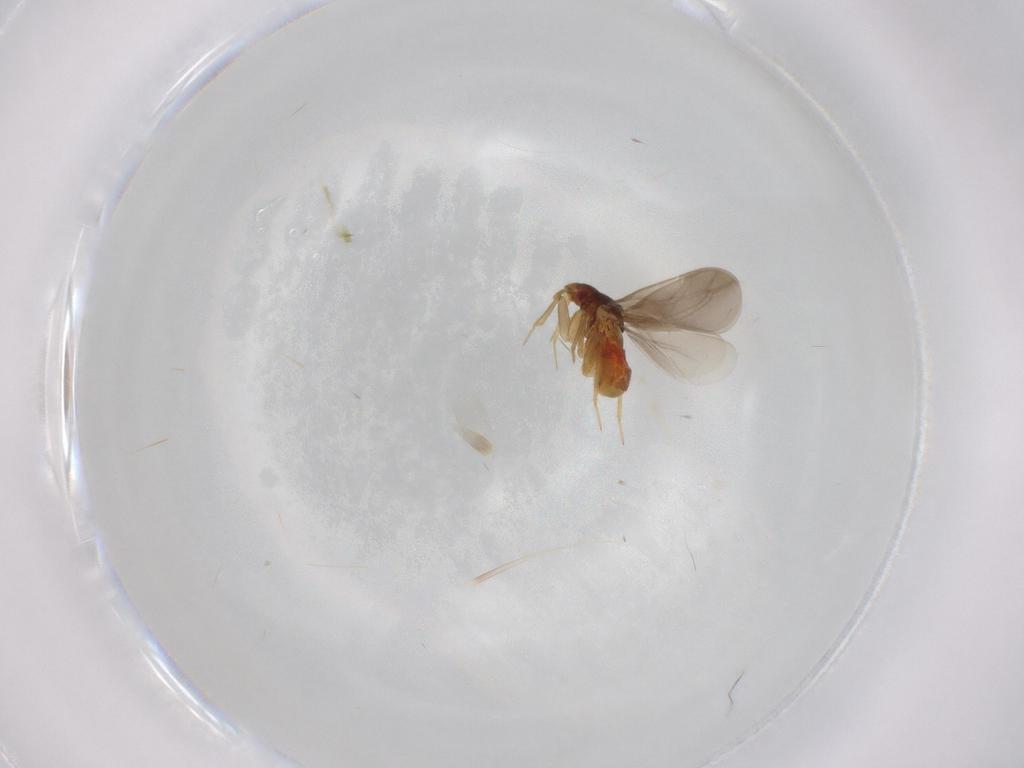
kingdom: Animalia
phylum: Arthropoda
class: Insecta
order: Hemiptera
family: Ceratocombidae
